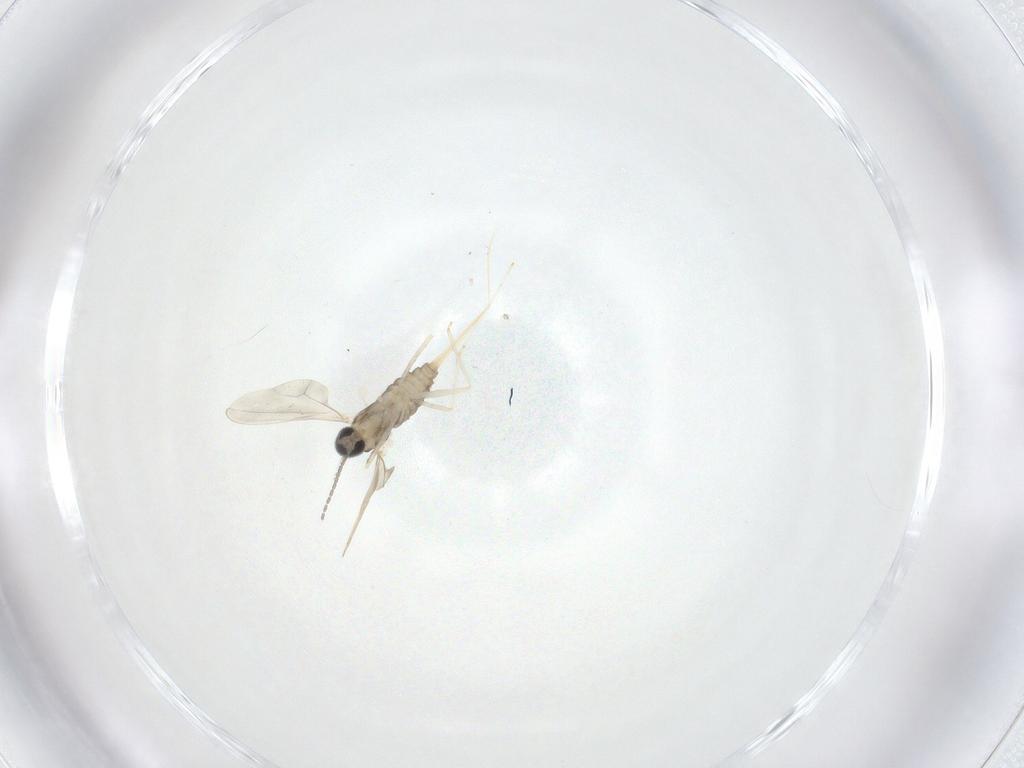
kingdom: Animalia
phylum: Arthropoda
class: Insecta
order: Diptera
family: Cecidomyiidae
